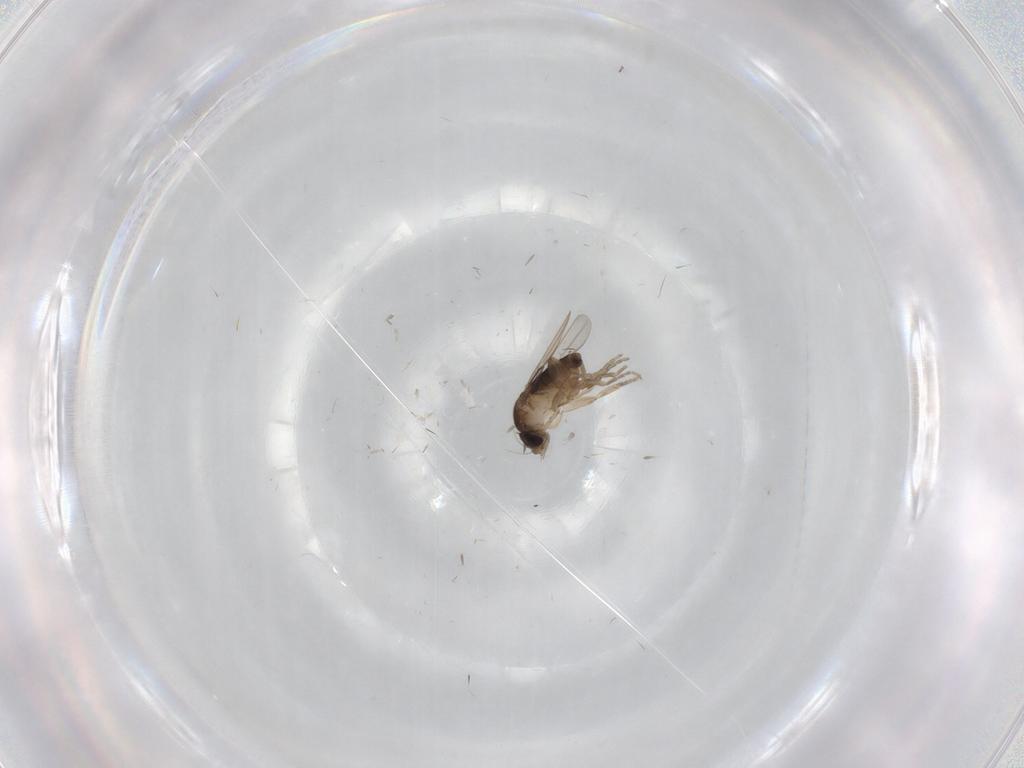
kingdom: Animalia
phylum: Arthropoda
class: Insecta
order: Diptera
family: Phoridae
